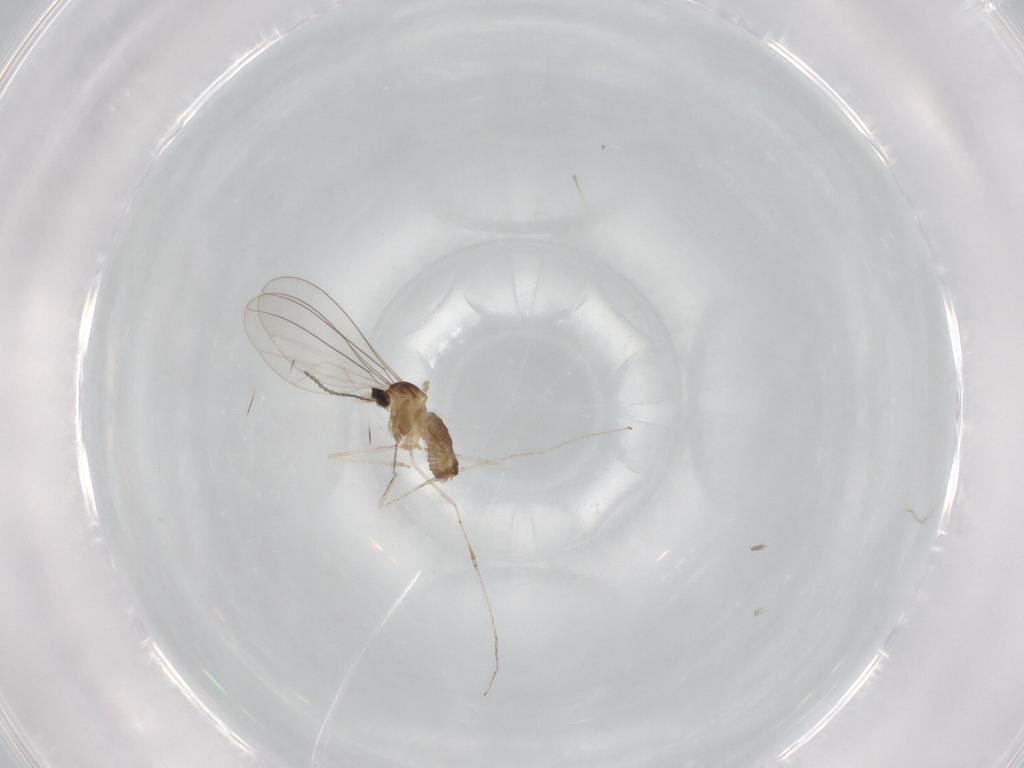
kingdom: Animalia
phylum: Arthropoda
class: Insecta
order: Diptera
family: Cecidomyiidae
